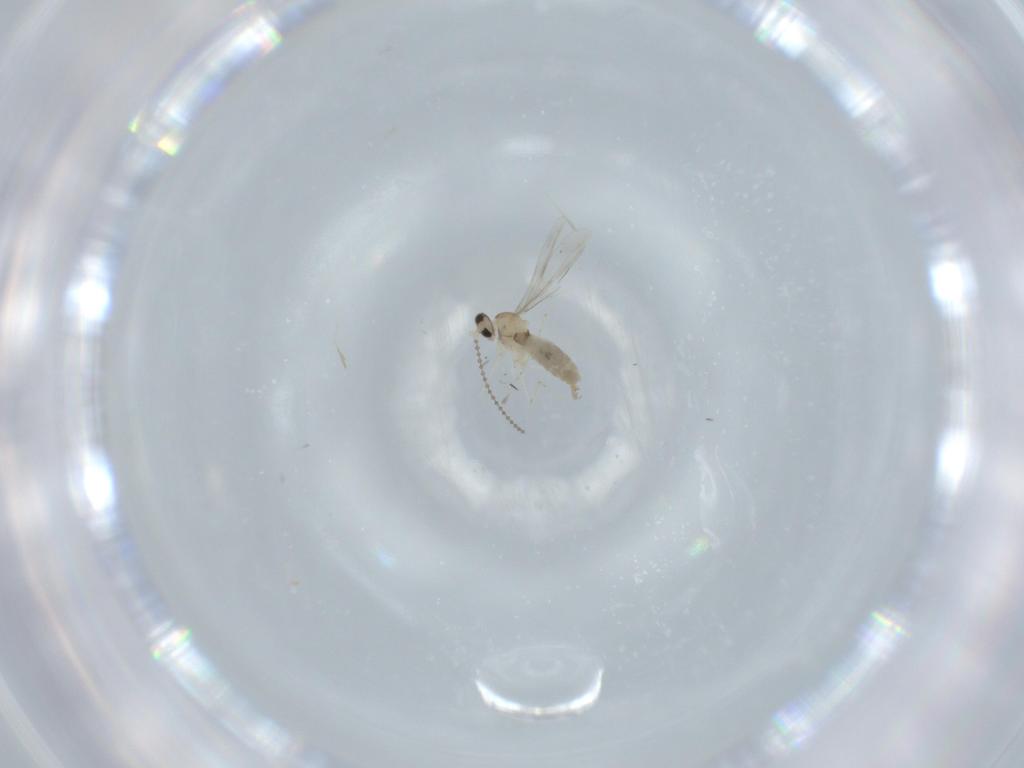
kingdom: Animalia
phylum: Arthropoda
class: Insecta
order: Diptera
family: Cecidomyiidae
